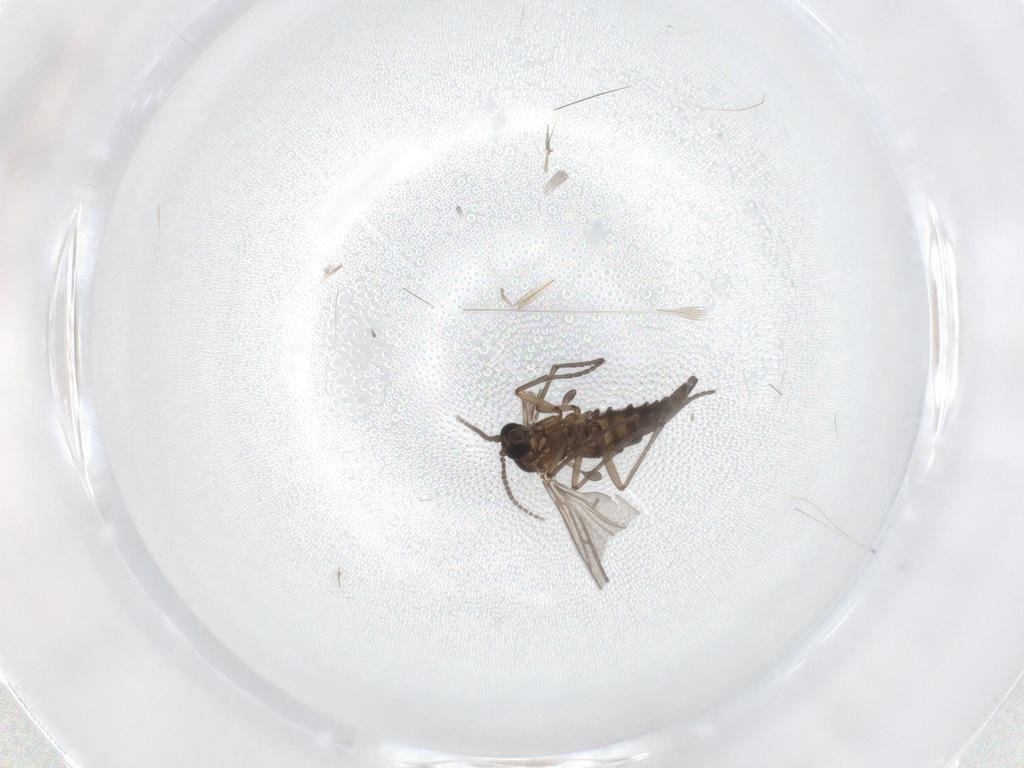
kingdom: Animalia
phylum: Arthropoda
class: Insecta
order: Diptera
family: Sciaridae
